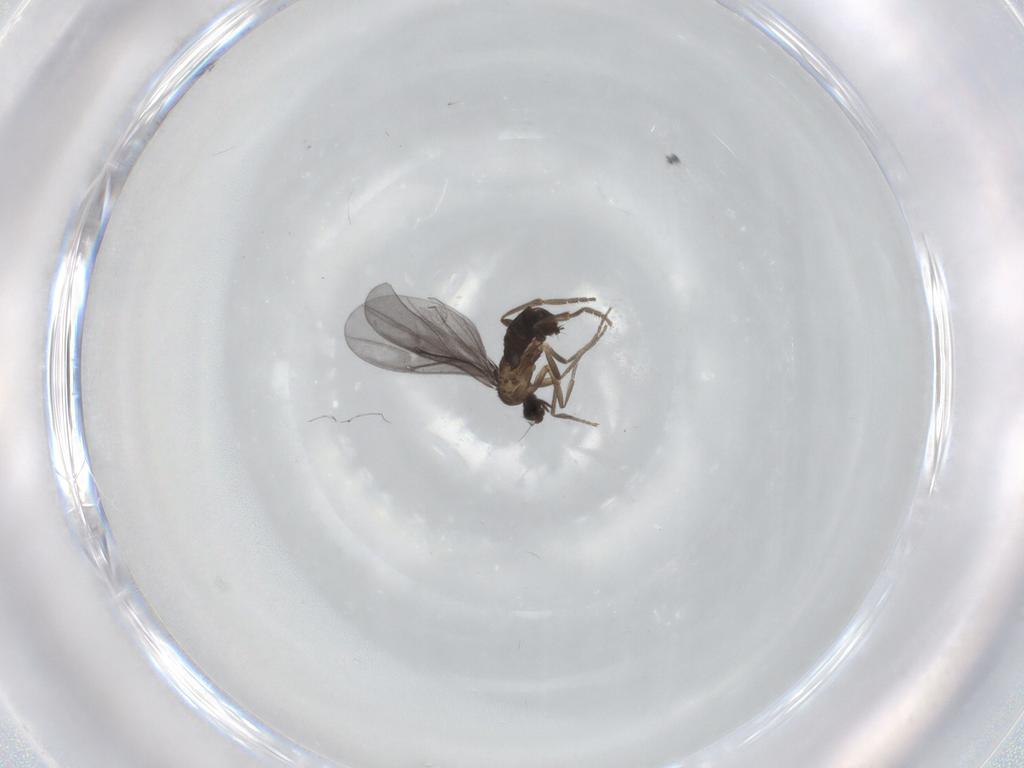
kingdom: Animalia
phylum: Arthropoda
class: Insecta
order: Diptera
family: Phoridae
